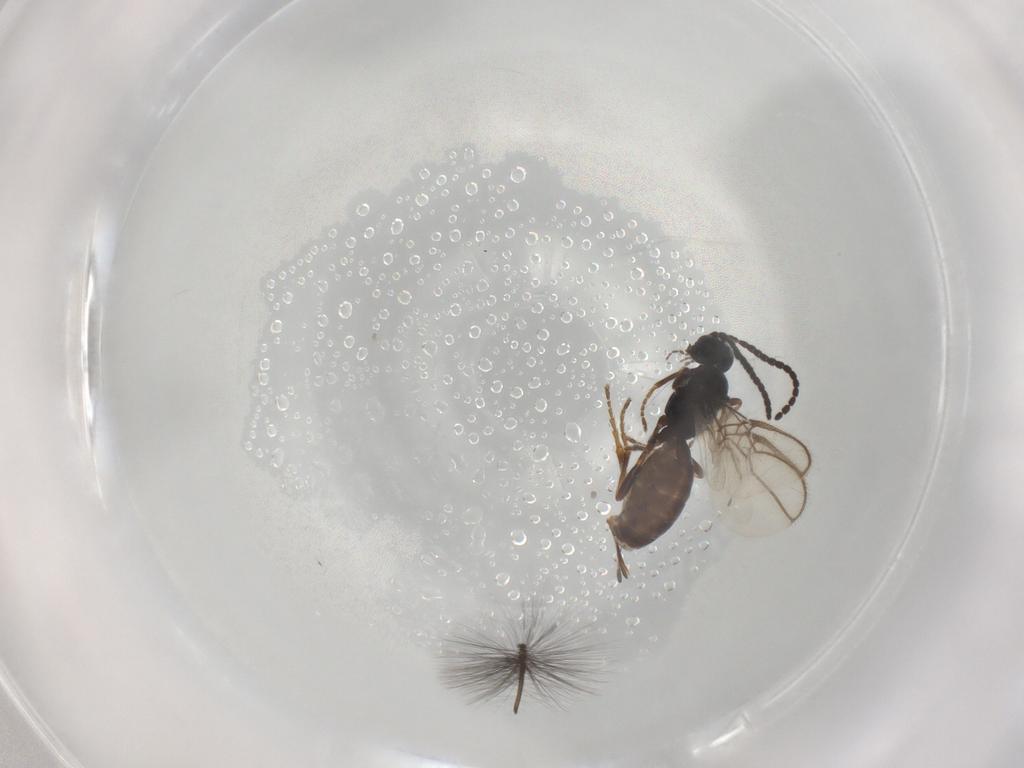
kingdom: Animalia
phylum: Arthropoda
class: Insecta
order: Hymenoptera
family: Braconidae
